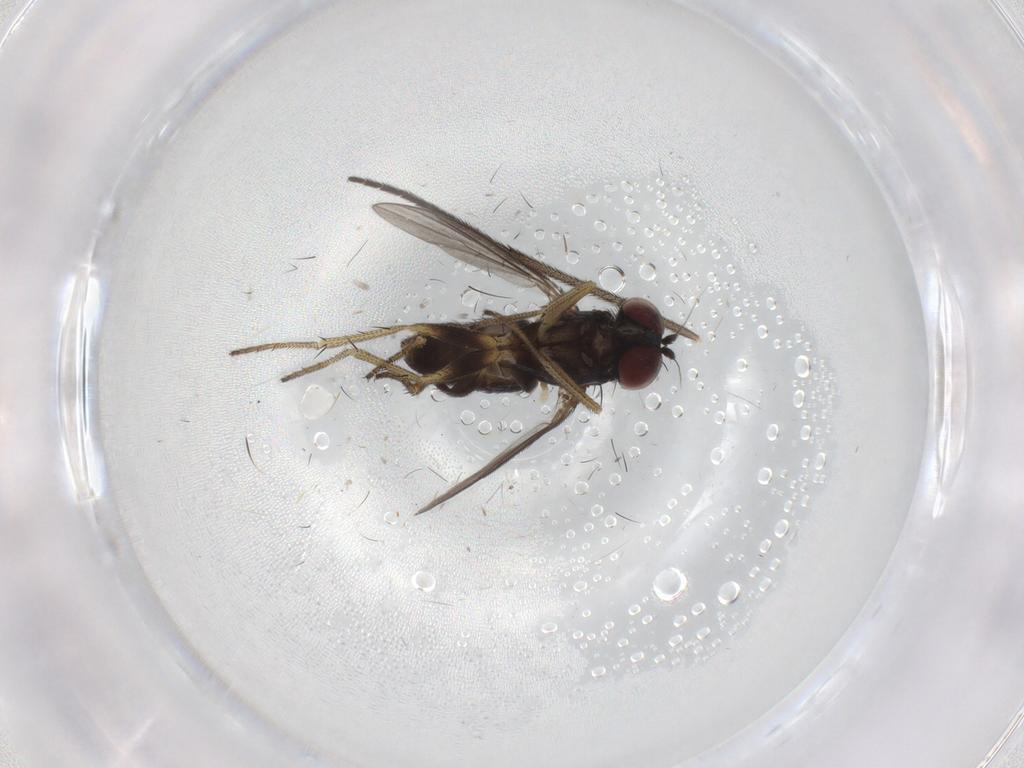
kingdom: Animalia
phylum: Arthropoda
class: Insecta
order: Diptera
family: Sciaridae
